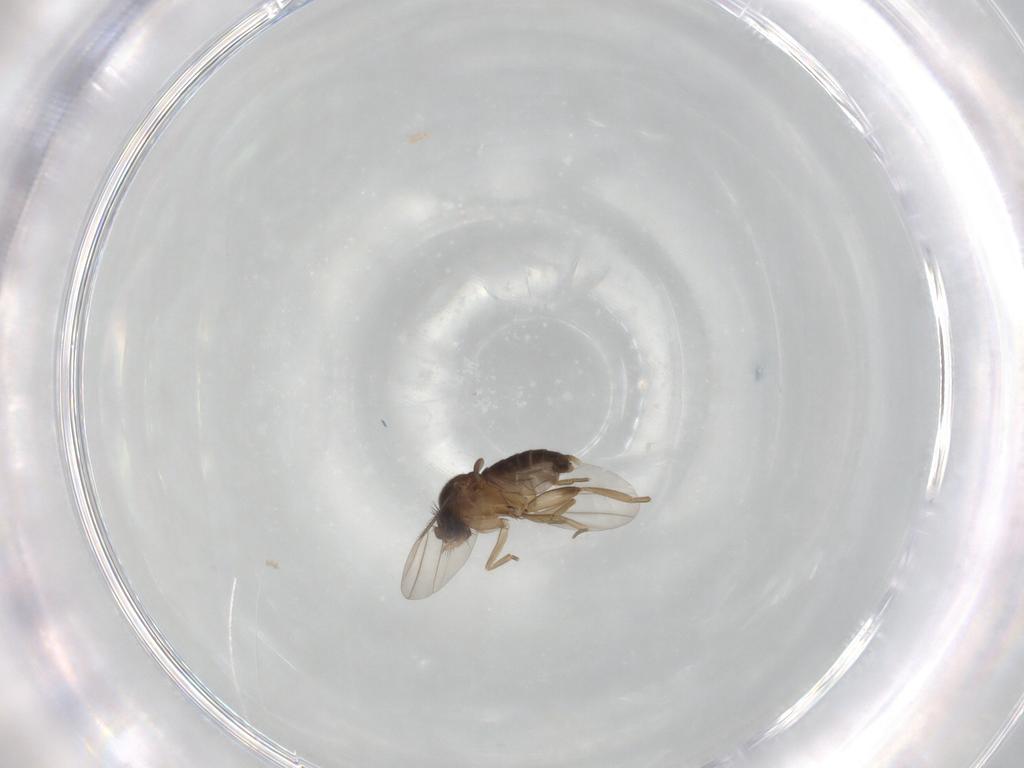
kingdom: Animalia
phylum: Arthropoda
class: Insecta
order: Diptera
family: Phoridae
